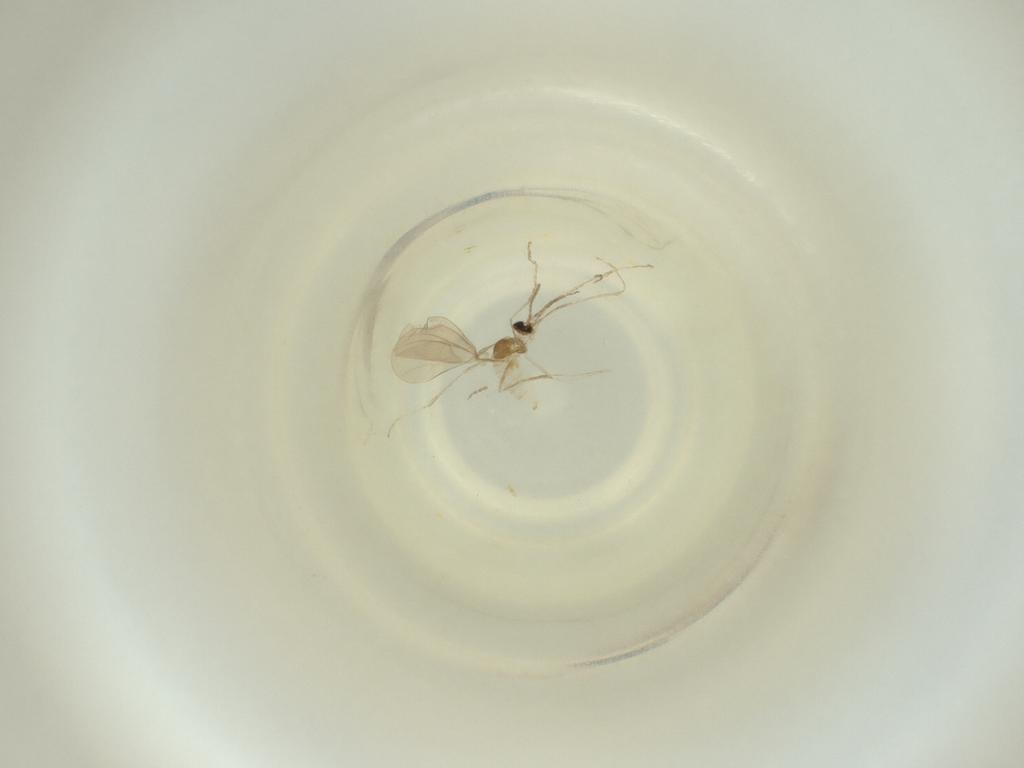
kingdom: Animalia
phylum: Arthropoda
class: Insecta
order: Diptera
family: Cecidomyiidae
